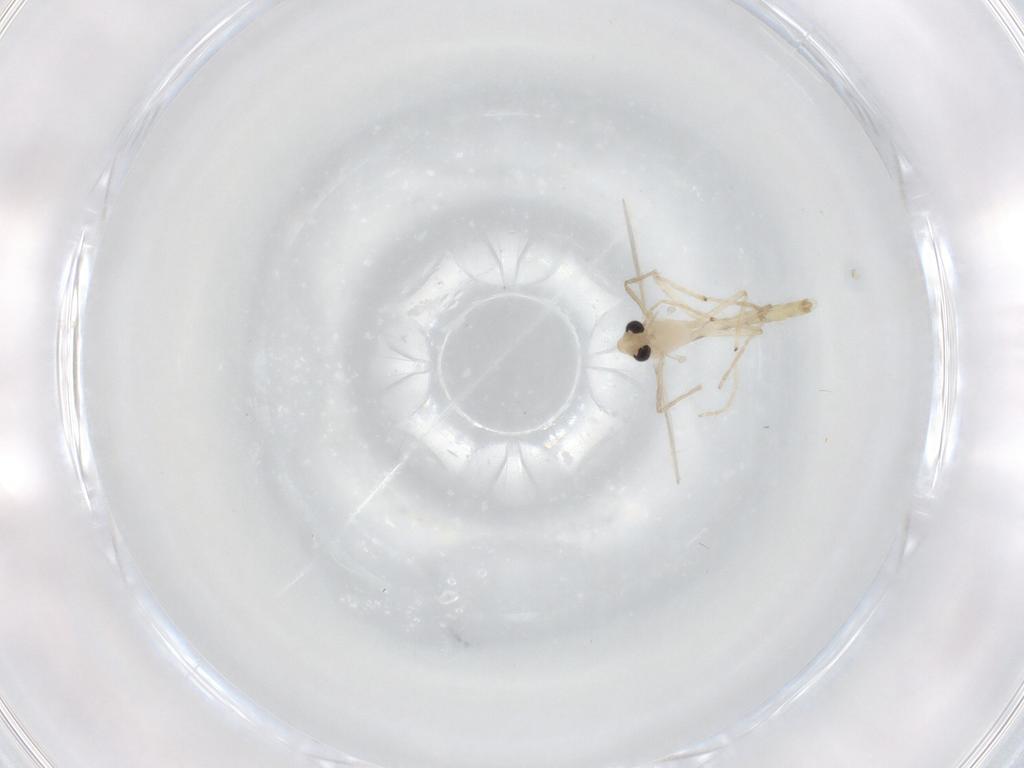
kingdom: Animalia
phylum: Arthropoda
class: Insecta
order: Diptera
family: Chironomidae
